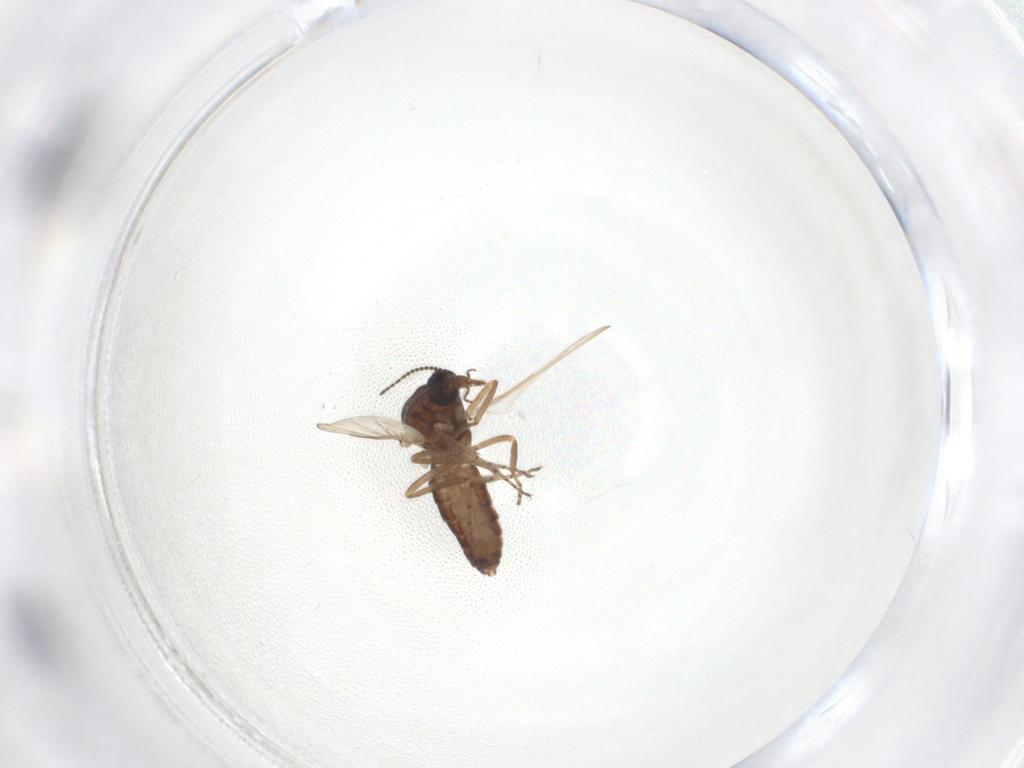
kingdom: Animalia
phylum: Arthropoda
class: Insecta
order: Diptera
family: Ceratopogonidae
